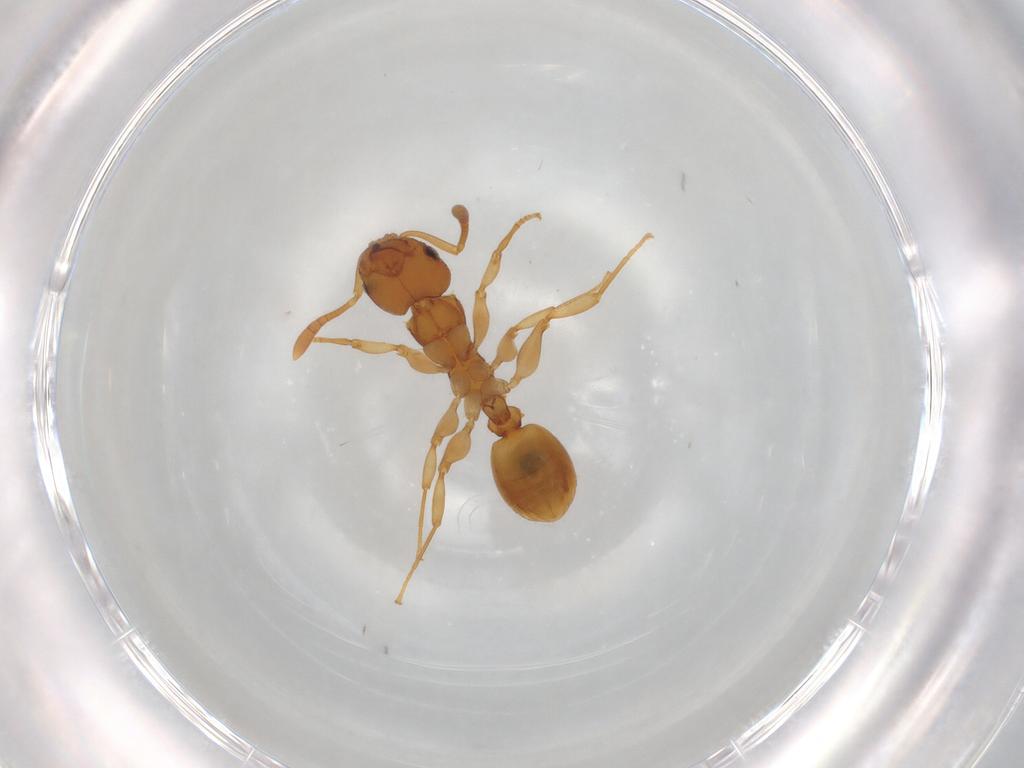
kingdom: Animalia
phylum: Arthropoda
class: Insecta
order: Hymenoptera
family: Formicidae
